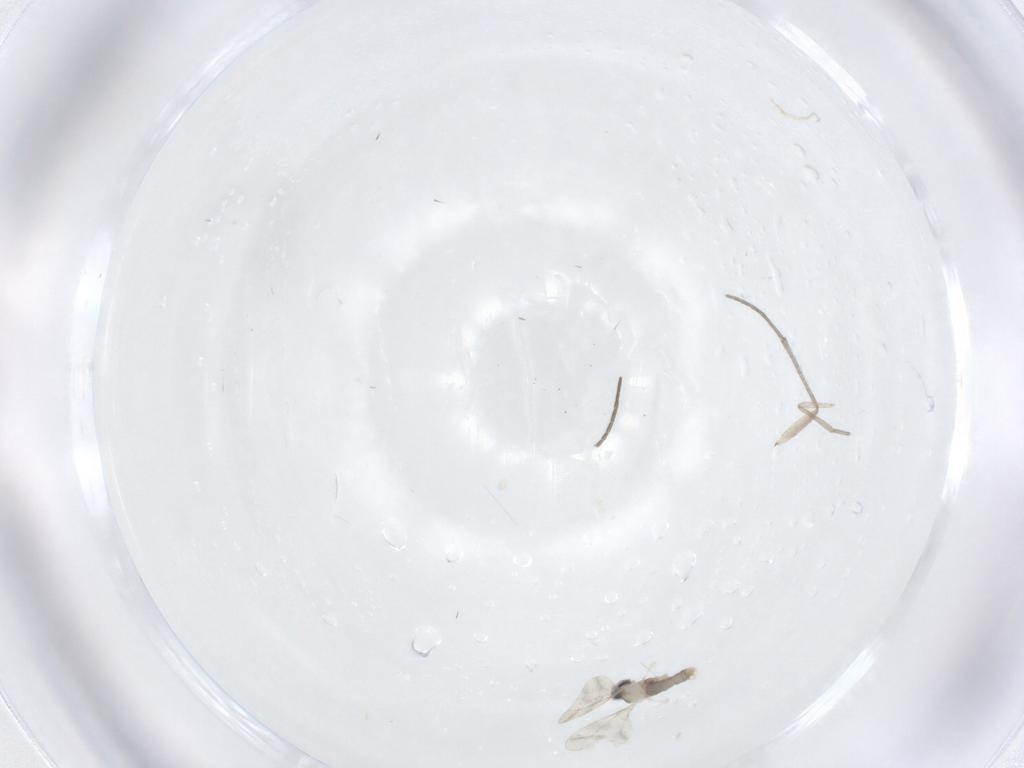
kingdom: Animalia
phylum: Arthropoda
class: Insecta
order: Diptera
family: Psychodidae
